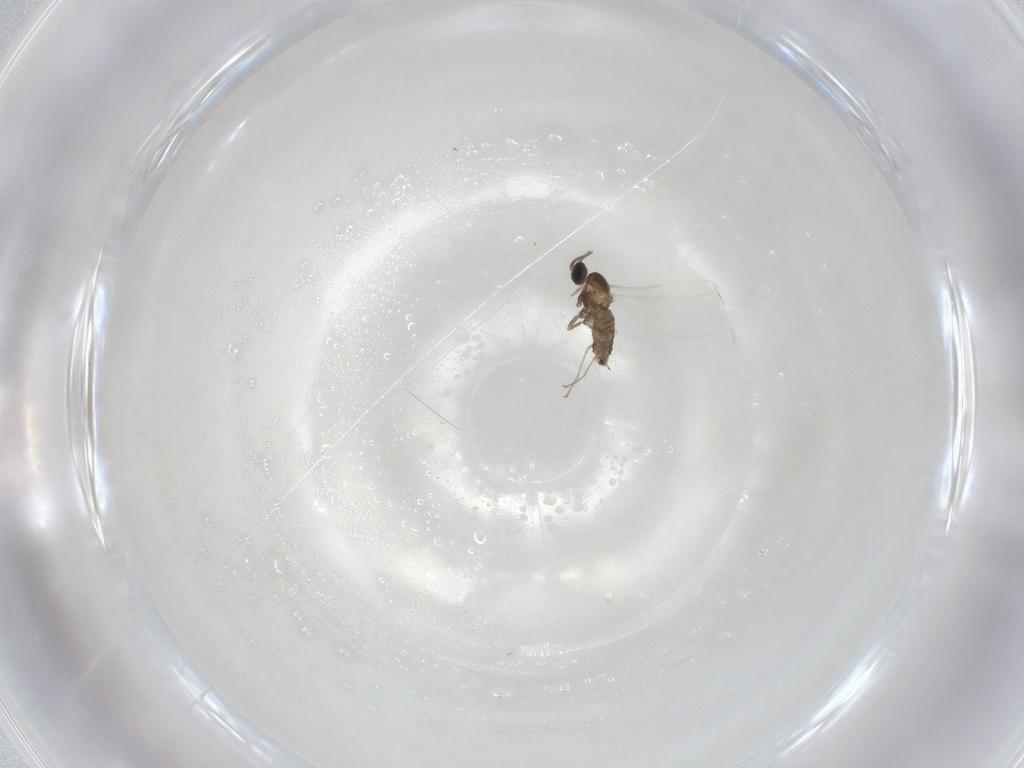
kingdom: Animalia
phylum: Arthropoda
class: Insecta
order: Diptera
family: Cecidomyiidae
